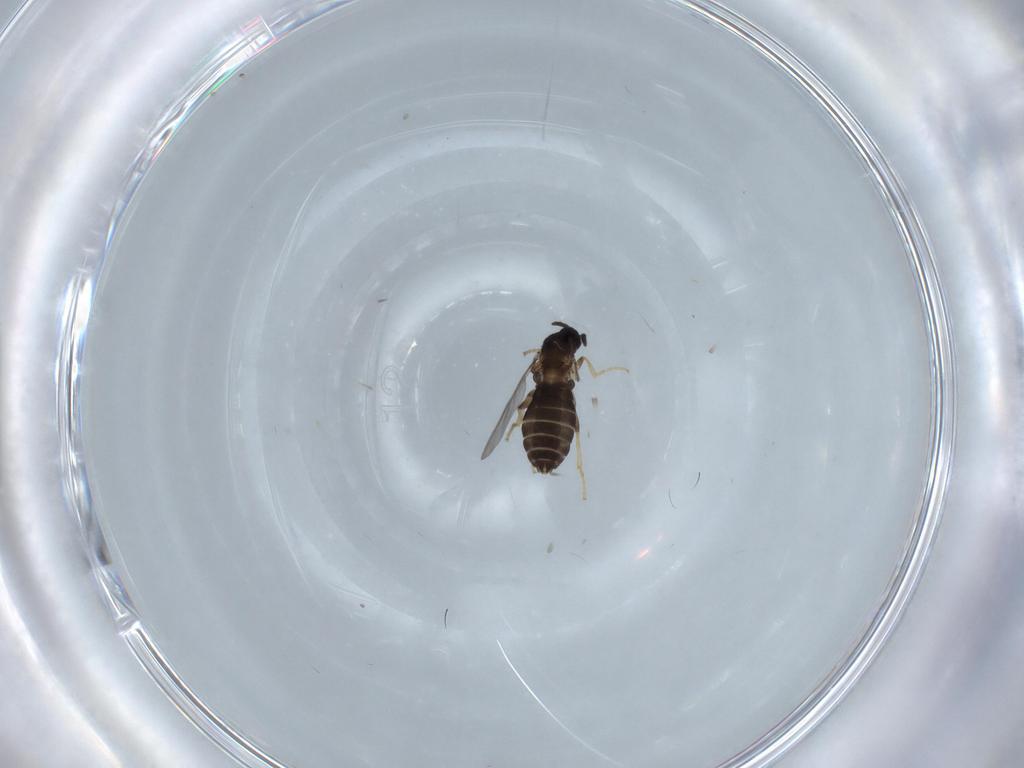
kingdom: Animalia
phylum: Arthropoda
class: Insecta
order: Diptera
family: Scatopsidae
